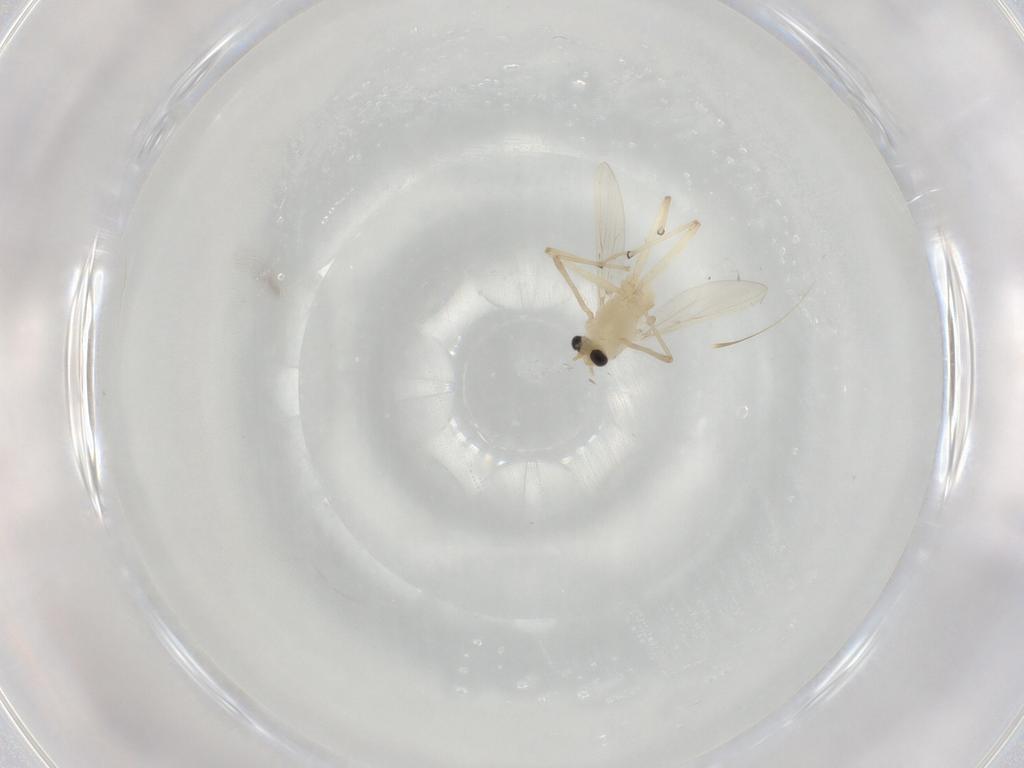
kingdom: Animalia
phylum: Arthropoda
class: Insecta
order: Diptera
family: Chironomidae
